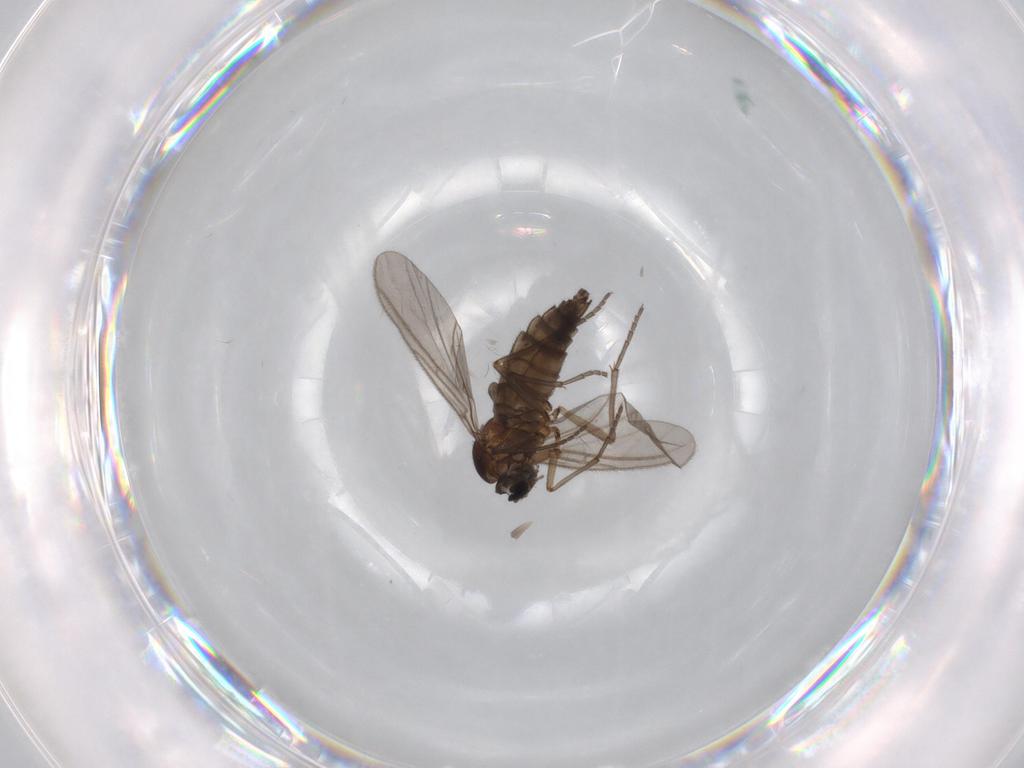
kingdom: Animalia
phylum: Arthropoda
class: Insecta
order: Diptera
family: Sciaridae
